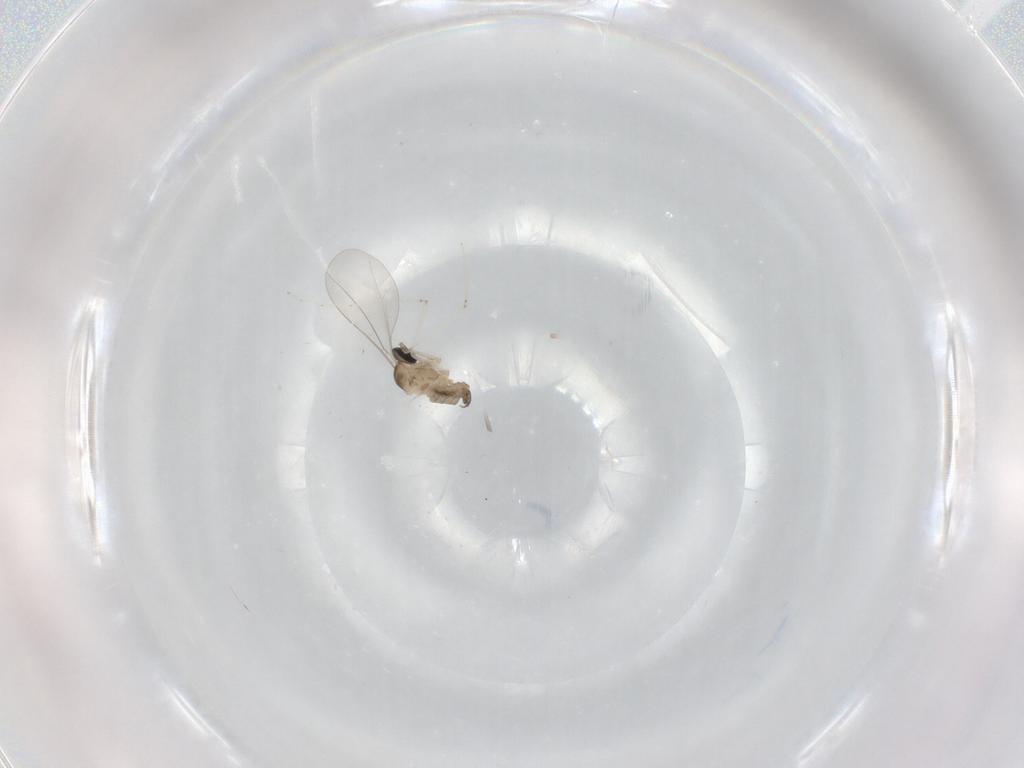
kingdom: Animalia
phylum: Arthropoda
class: Insecta
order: Diptera
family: Cecidomyiidae
